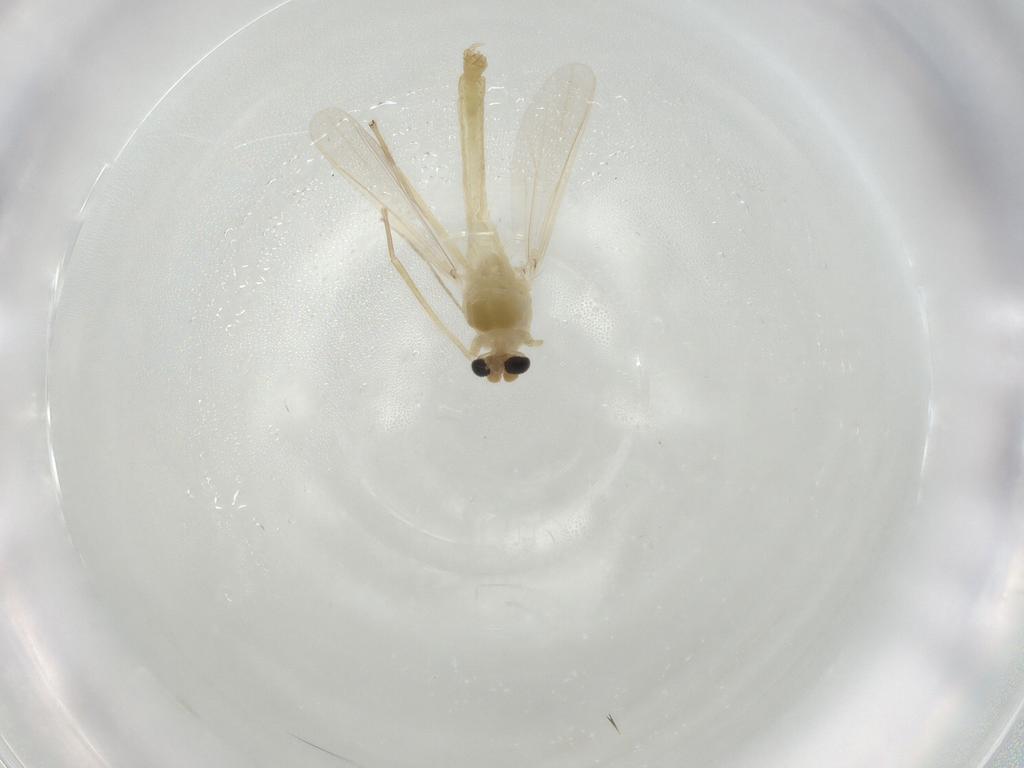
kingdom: Animalia
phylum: Arthropoda
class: Insecta
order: Diptera
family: Chironomidae
